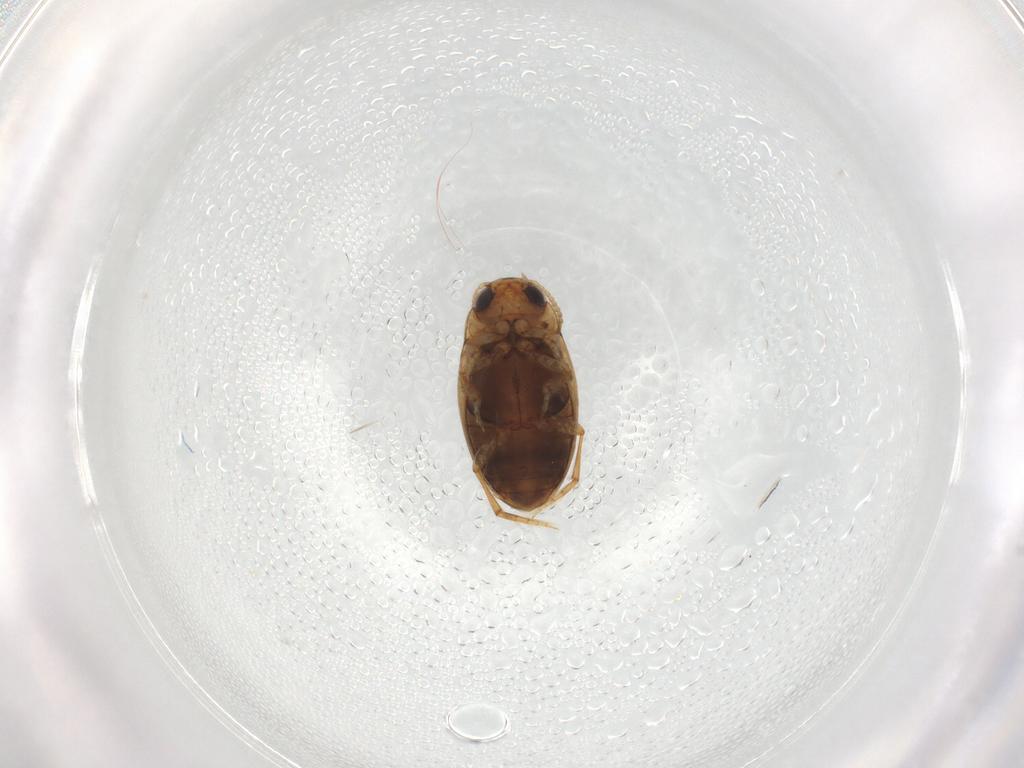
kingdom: Animalia
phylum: Arthropoda
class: Insecta
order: Coleoptera
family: Dytiscidae
